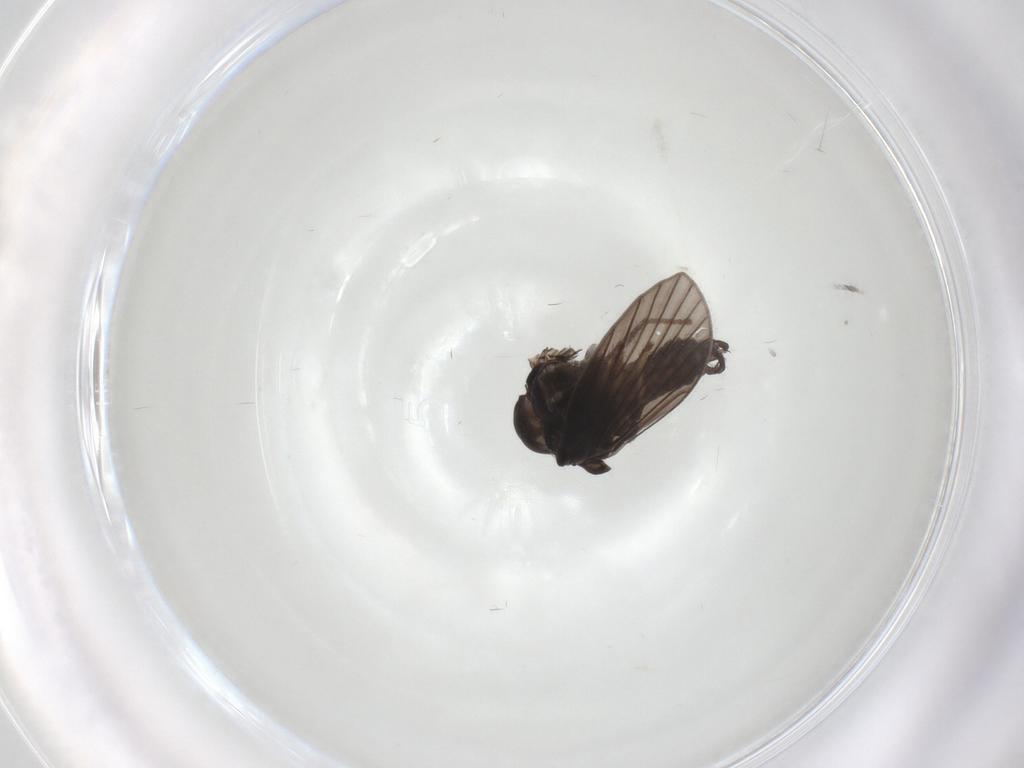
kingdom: Animalia
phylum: Arthropoda
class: Insecta
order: Diptera
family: Psychodidae
